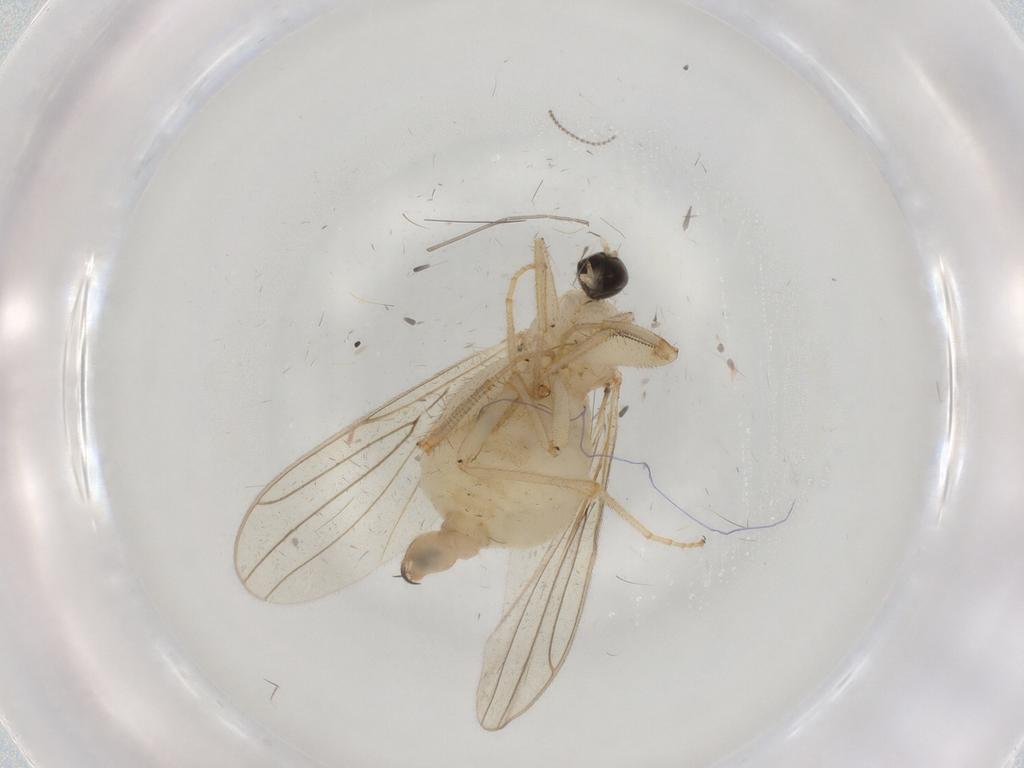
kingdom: Animalia
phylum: Arthropoda
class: Insecta
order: Diptera
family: Hybotidae
